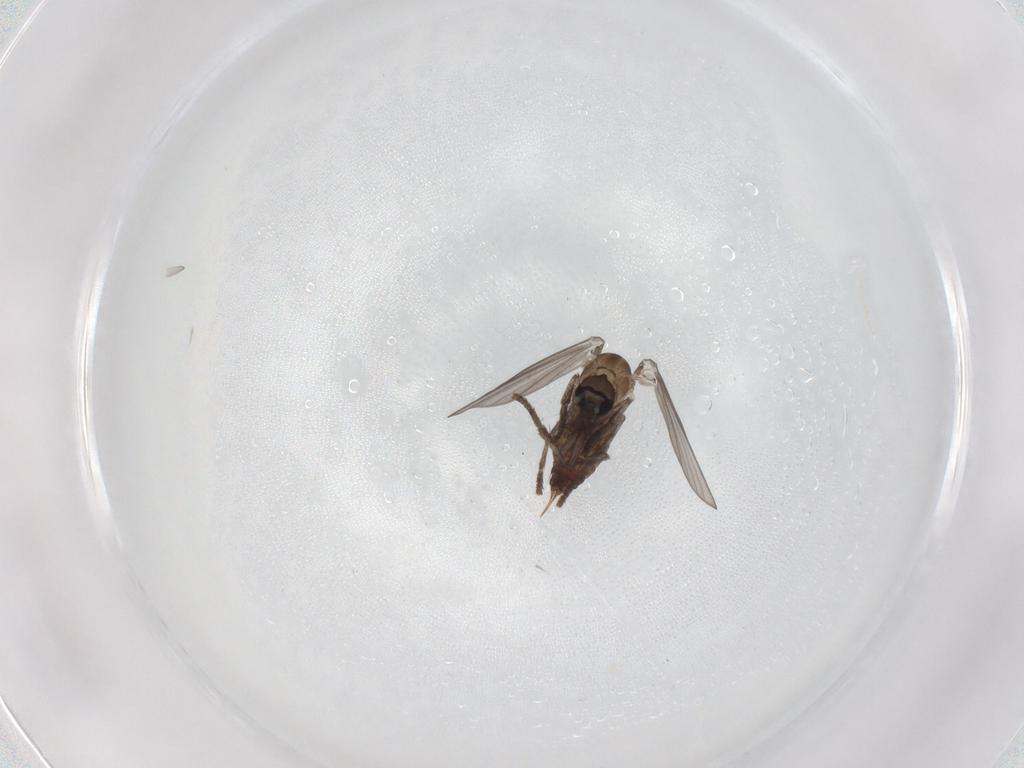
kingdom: Animalia
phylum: Arthropoda
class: Insecta
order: Diptera
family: Psychodidae
